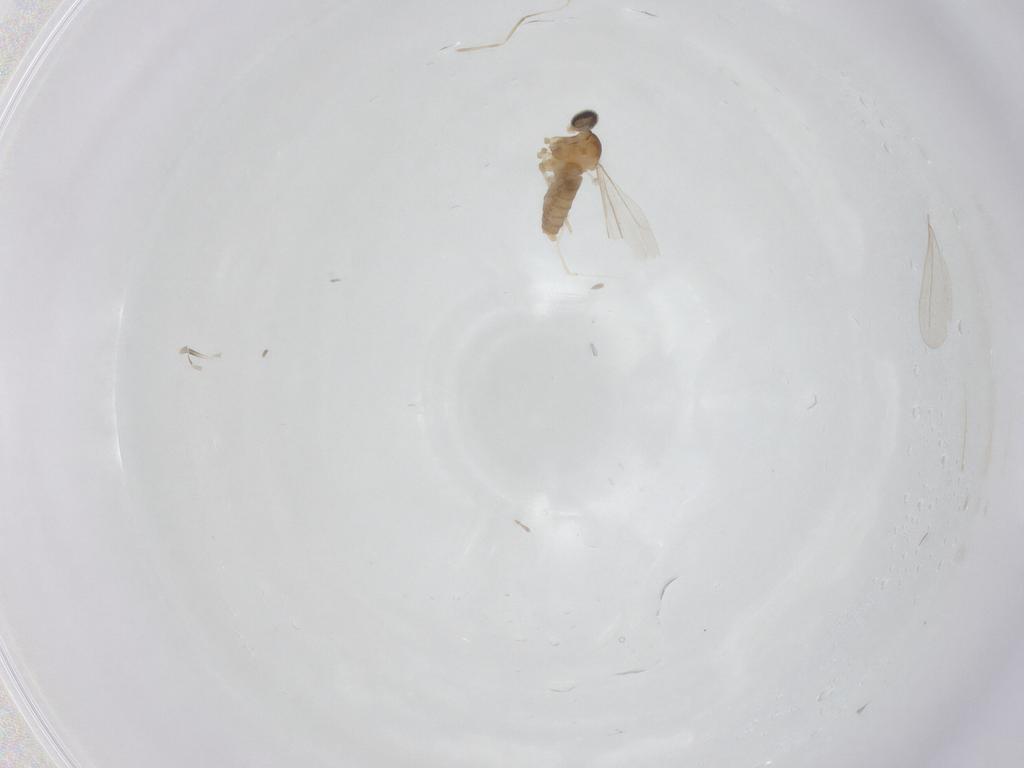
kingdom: Animalia
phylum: Arthropoda
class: Insecta
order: Diptera
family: Cecidomyiidae
